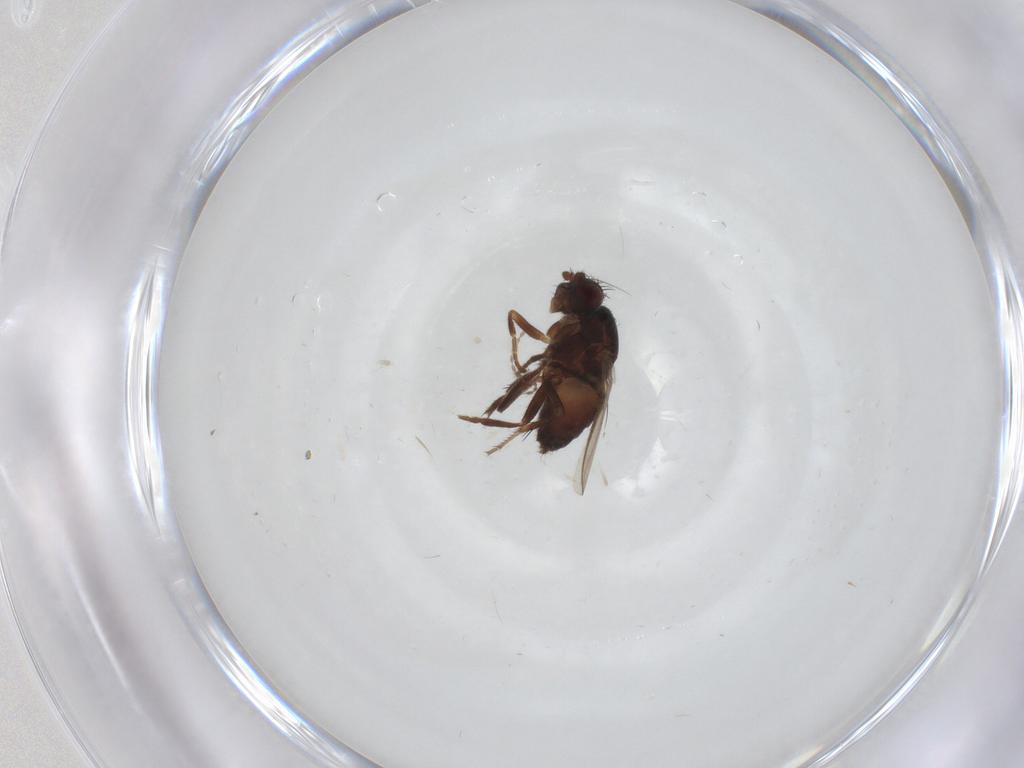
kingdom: Animalia
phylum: Arthropoda
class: Insecta
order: Diptera
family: Sphaeroceridae
